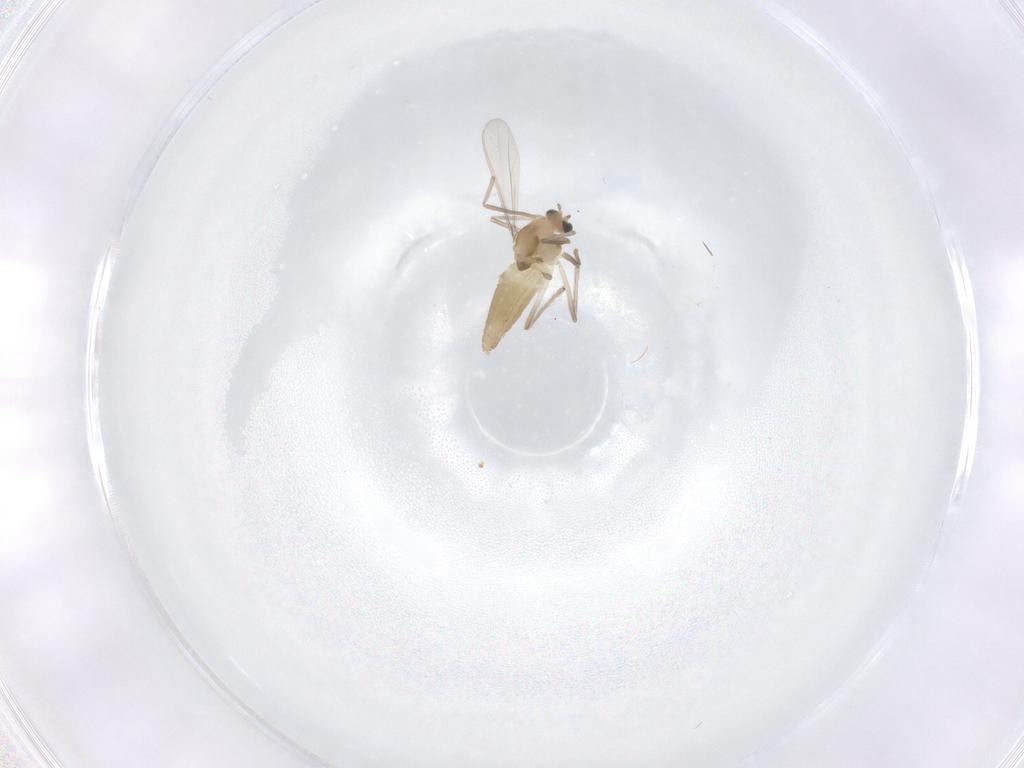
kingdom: Animalia
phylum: Arthropoda
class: Insecta
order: Diptera
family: Chironomidae
